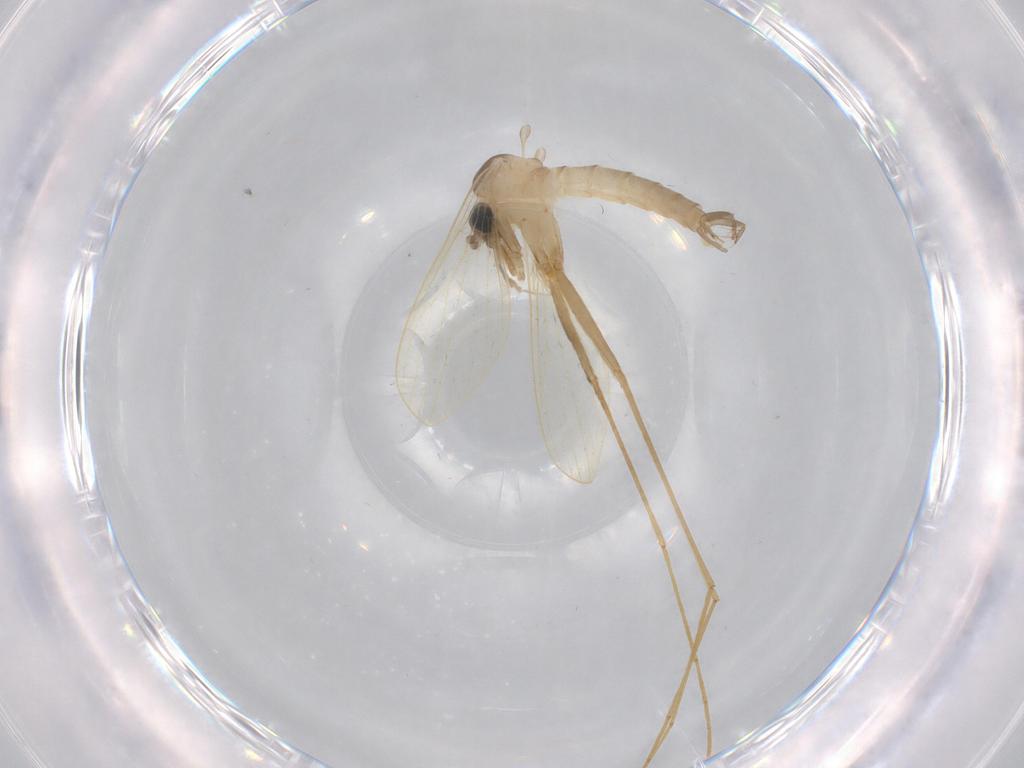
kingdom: Animalia
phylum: Arthropoda
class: Insecta
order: Diptera
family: Psychodidae
